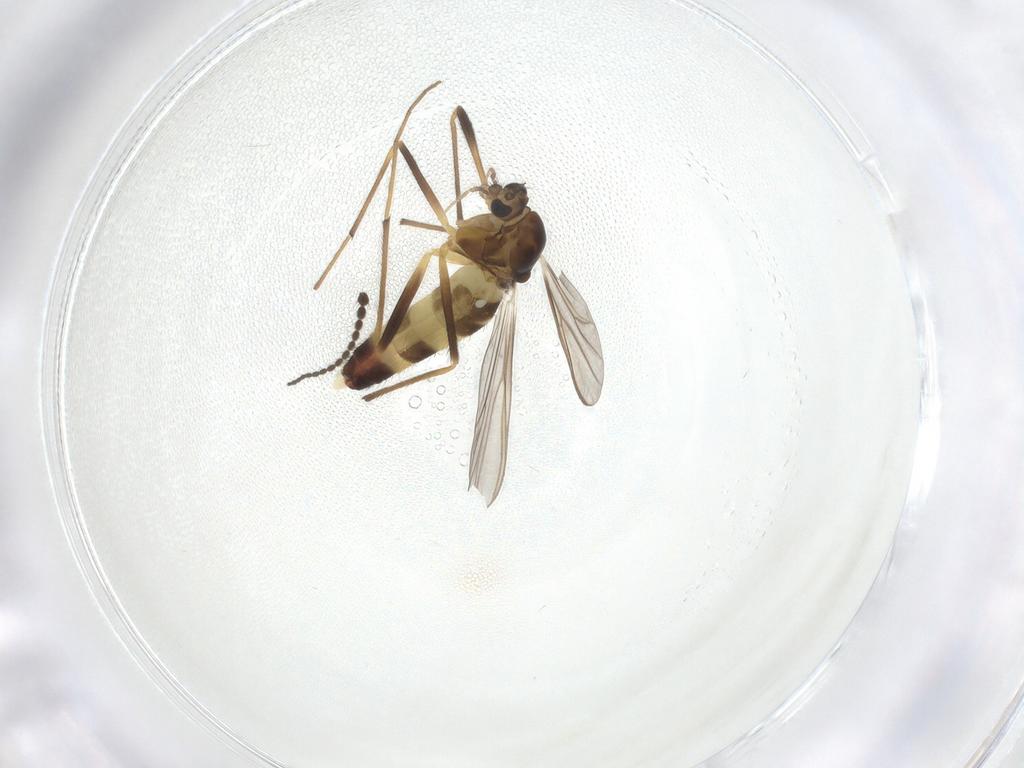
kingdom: Animalia
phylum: Arthropoda
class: Insecta
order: Diptera
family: Chironomidae
